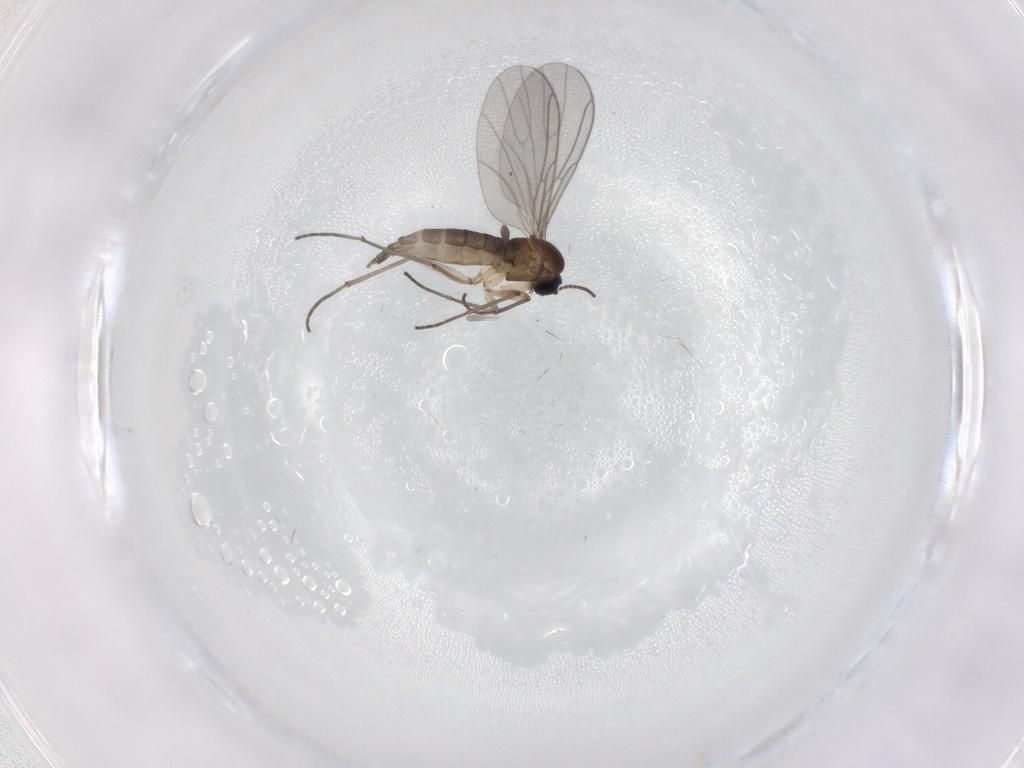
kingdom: Animalia
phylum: Arthropoda
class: Insecta
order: Diptera
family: Sciaridae
